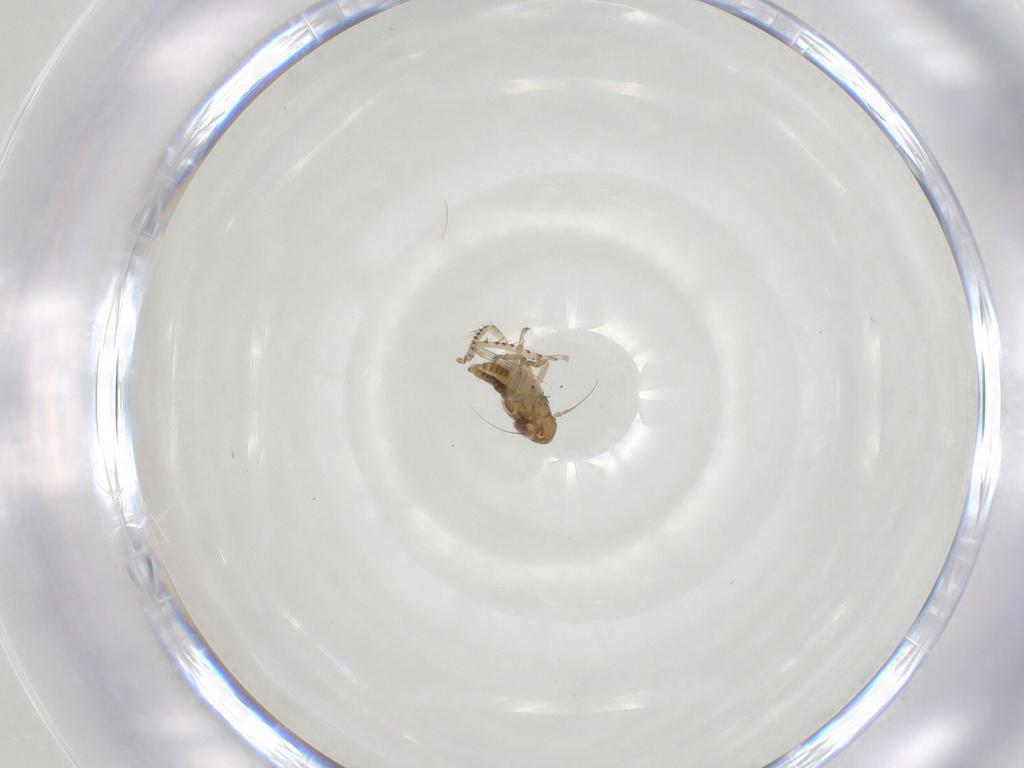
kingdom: Animalia
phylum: Arthropoda
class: Insecta
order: Hemiptera
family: Cicadellidae
